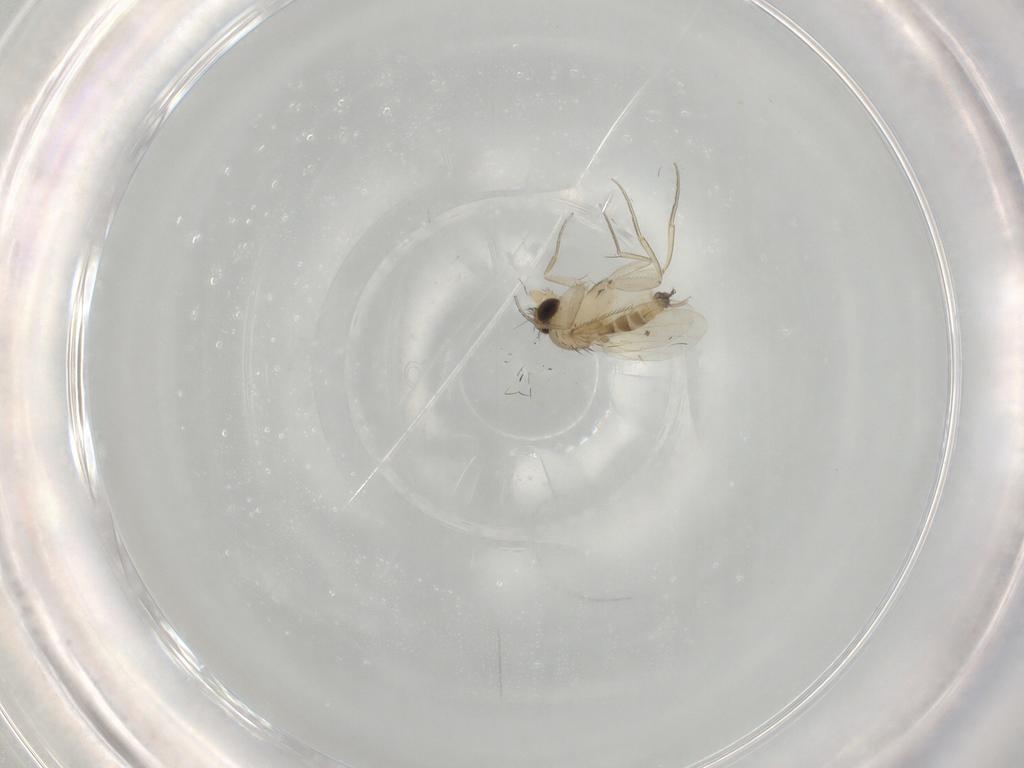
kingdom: Animalia
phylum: Arthropoda
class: Insecta
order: Diptera
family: Phoridae
